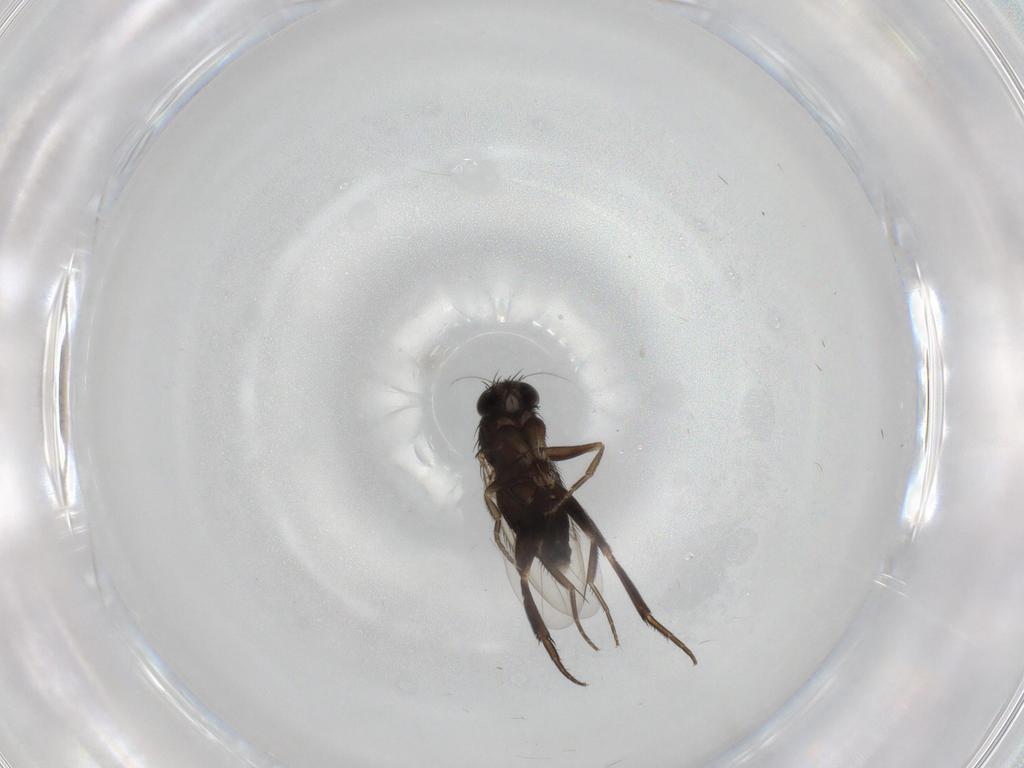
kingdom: Animalia
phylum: Arthropoda
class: Insecta
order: Diptera
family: Phoridae
